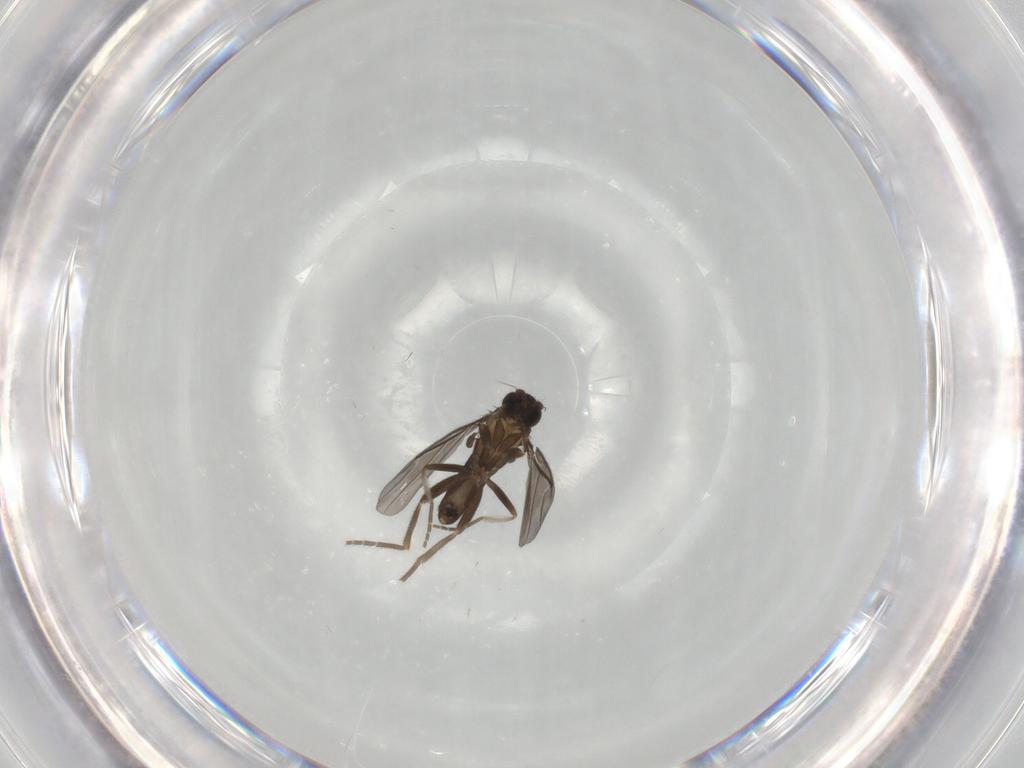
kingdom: Animalia
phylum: Arthropoda
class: Insecta
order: Diptera
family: Phoridae
